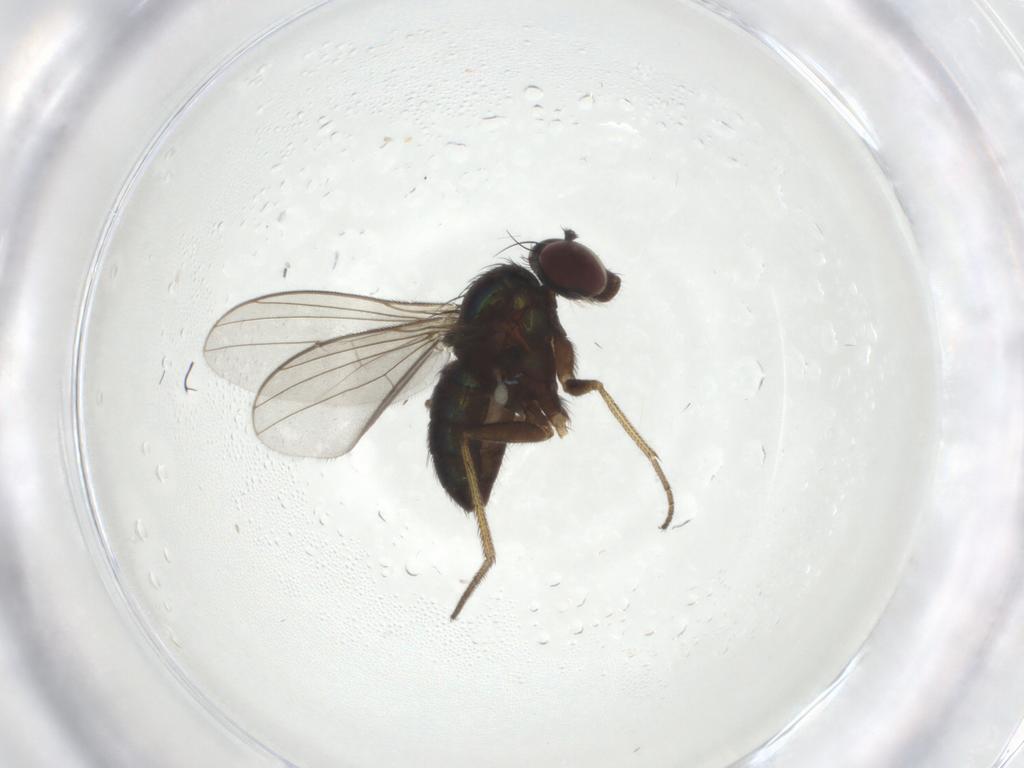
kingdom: Animalia
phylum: Arthropoda
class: Insecta
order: Diptera
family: Dolichopodidae
